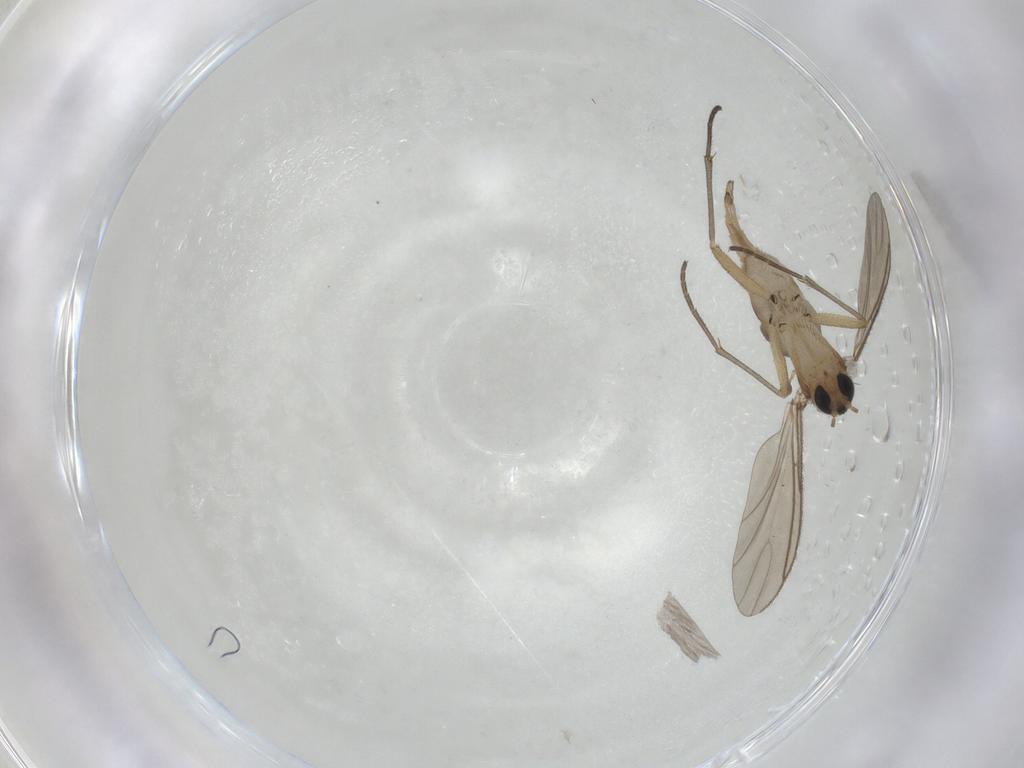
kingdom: Animalia
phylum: Arthropoda
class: Insecta
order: Diptera
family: Sciaridae
